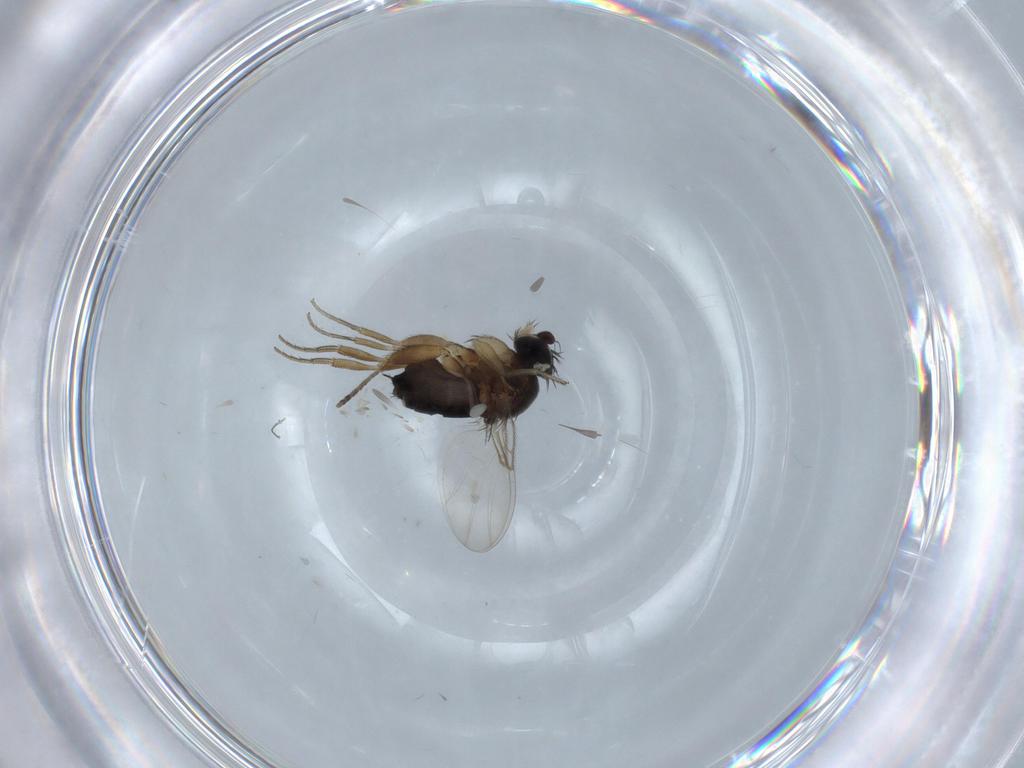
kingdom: Animalia
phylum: Arthropoda
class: Insecta
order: Diptera
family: Phoridae
